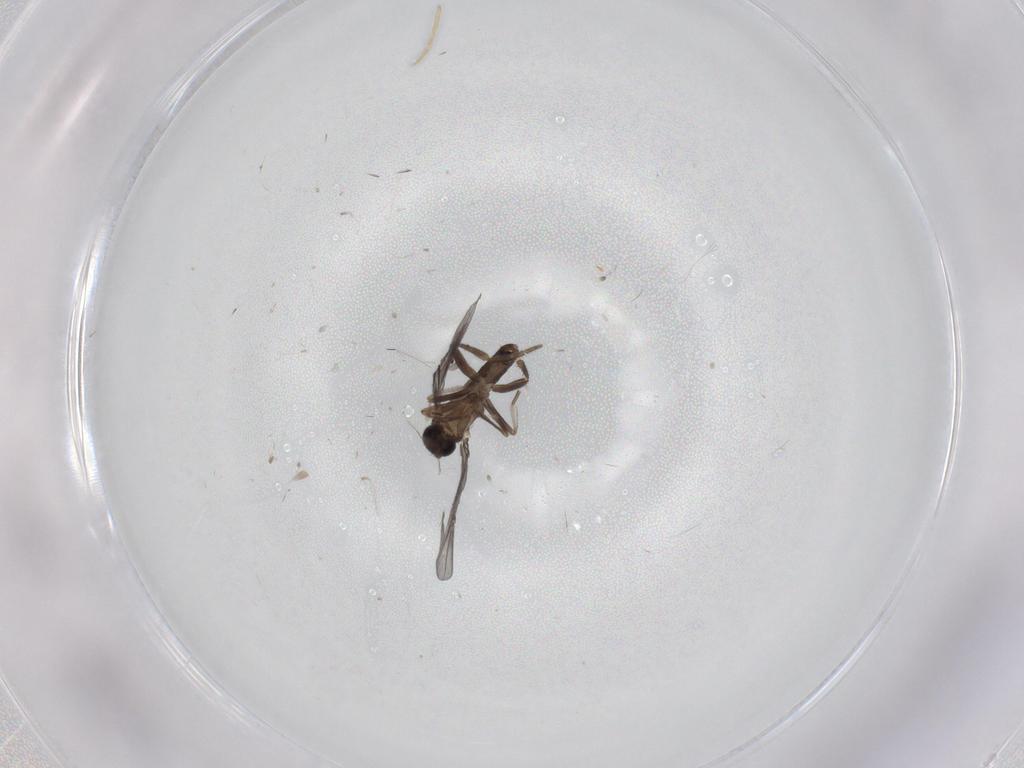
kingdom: Animalia
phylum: Arthropoda
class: Insecta
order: Diptera
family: Phoridae
